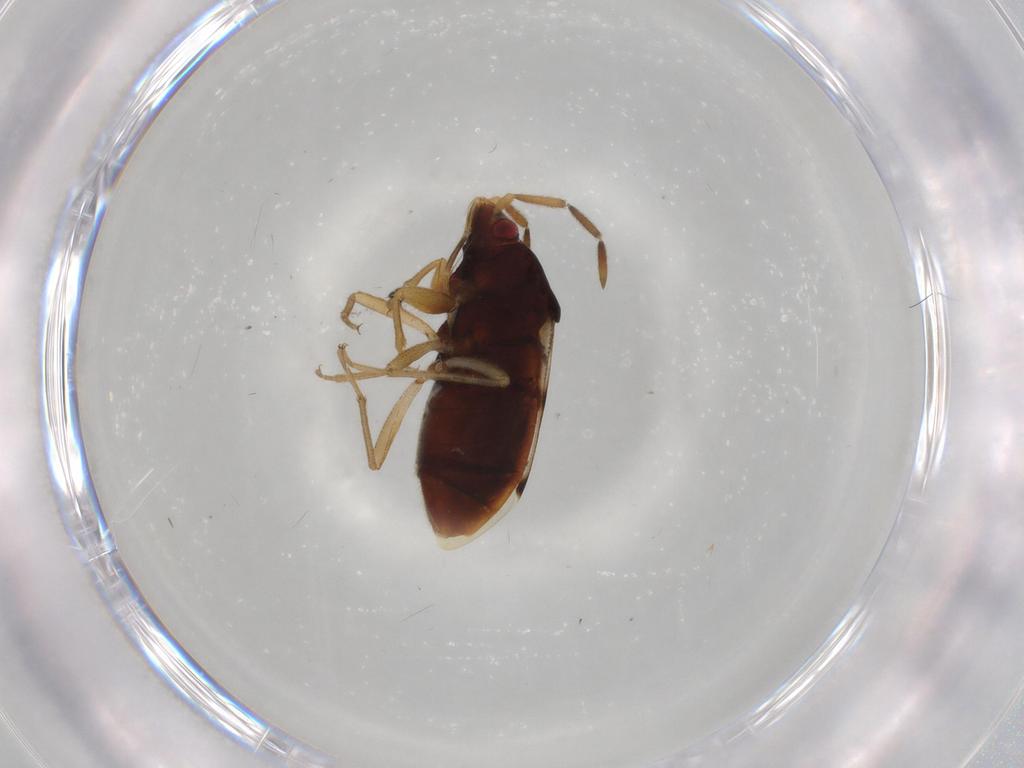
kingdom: Animalia
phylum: Arthropoda
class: Insecta
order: Hemiptera
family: Rhyparochromidae
